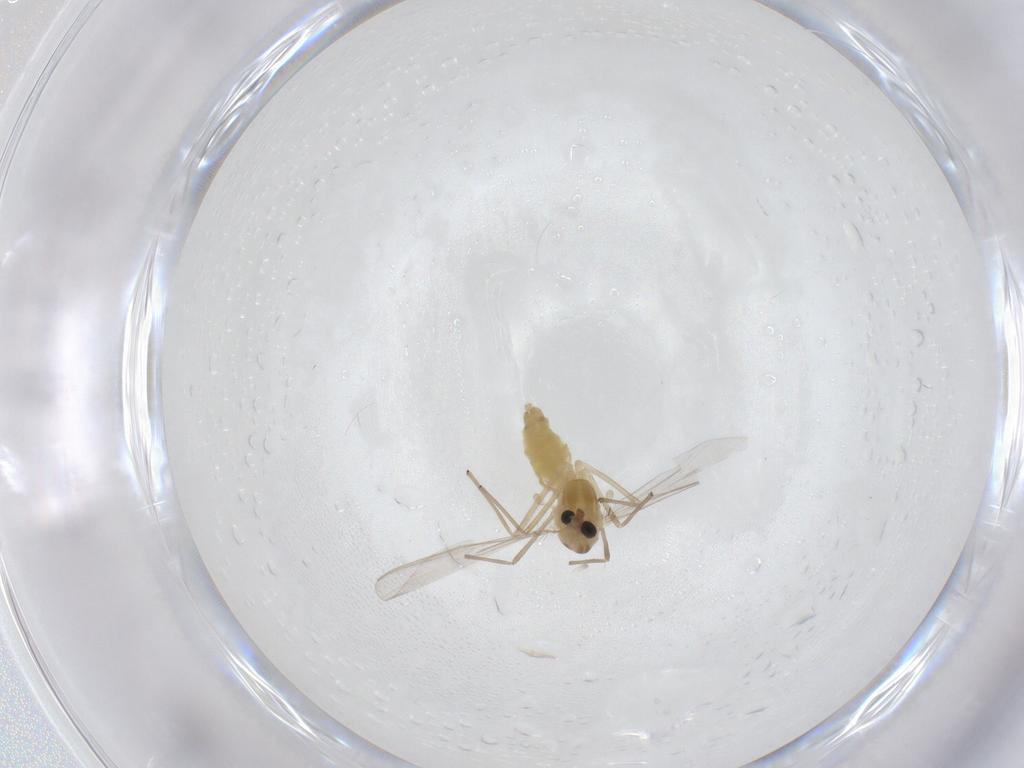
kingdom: Animalia
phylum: Arthropoda
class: Insecta
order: Diptera
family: Chironomidae
